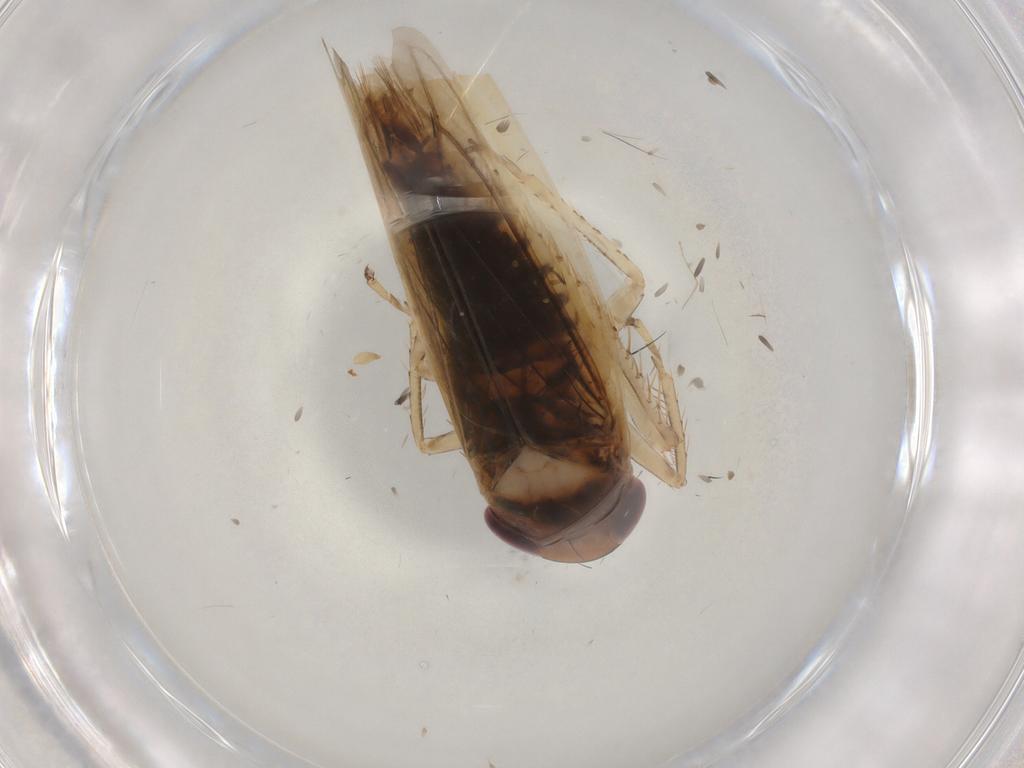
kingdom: Animalia
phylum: Arthropoda
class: Insecta
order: Hemiptera
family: Cicadellidae
